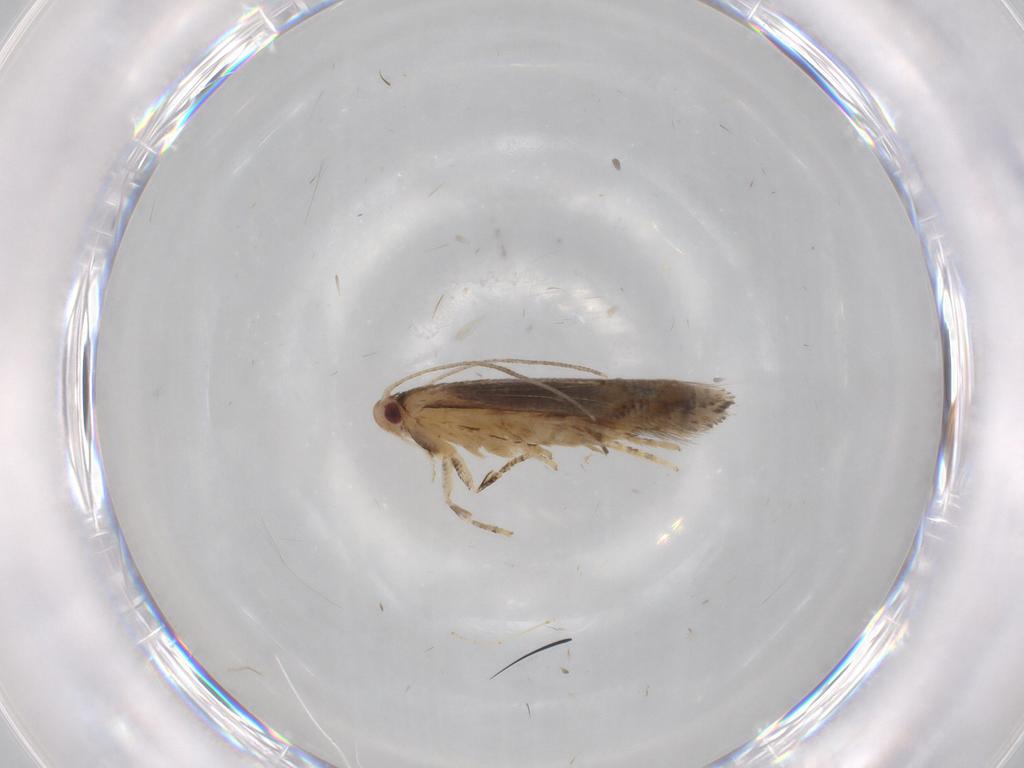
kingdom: Animalia
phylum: Arthropoda
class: Insecta
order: Lepidoptera
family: Momphidae
